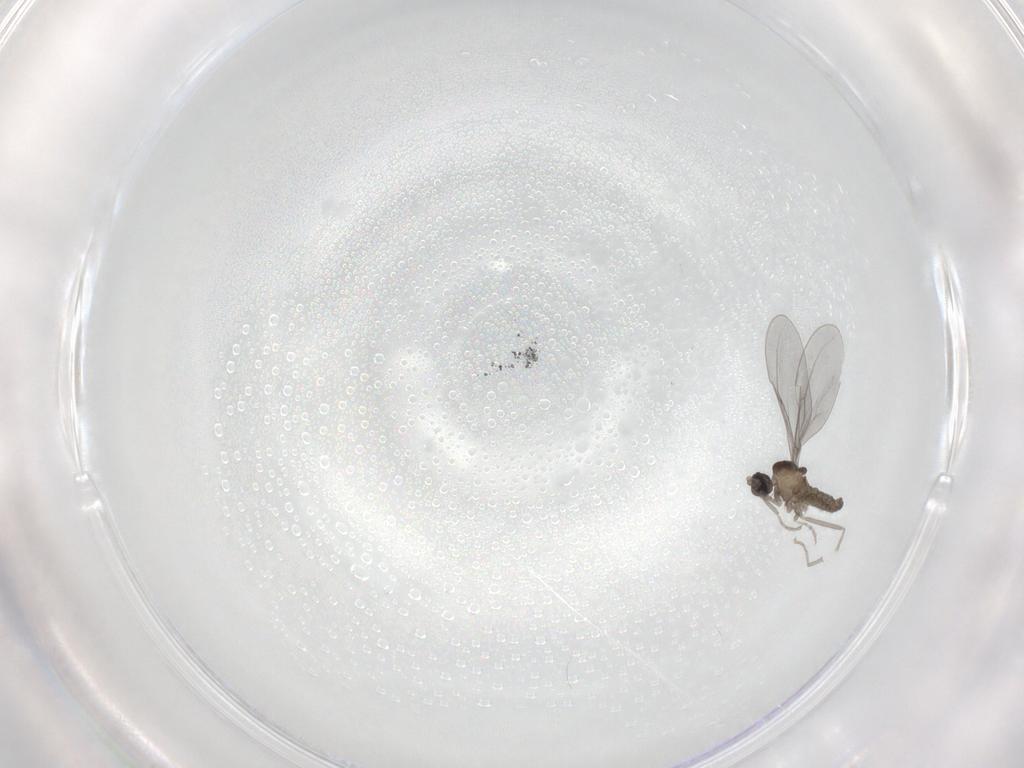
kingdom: Animalia
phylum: Arthropoda
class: Insecta
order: Diptera
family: Cecidomyiidae
